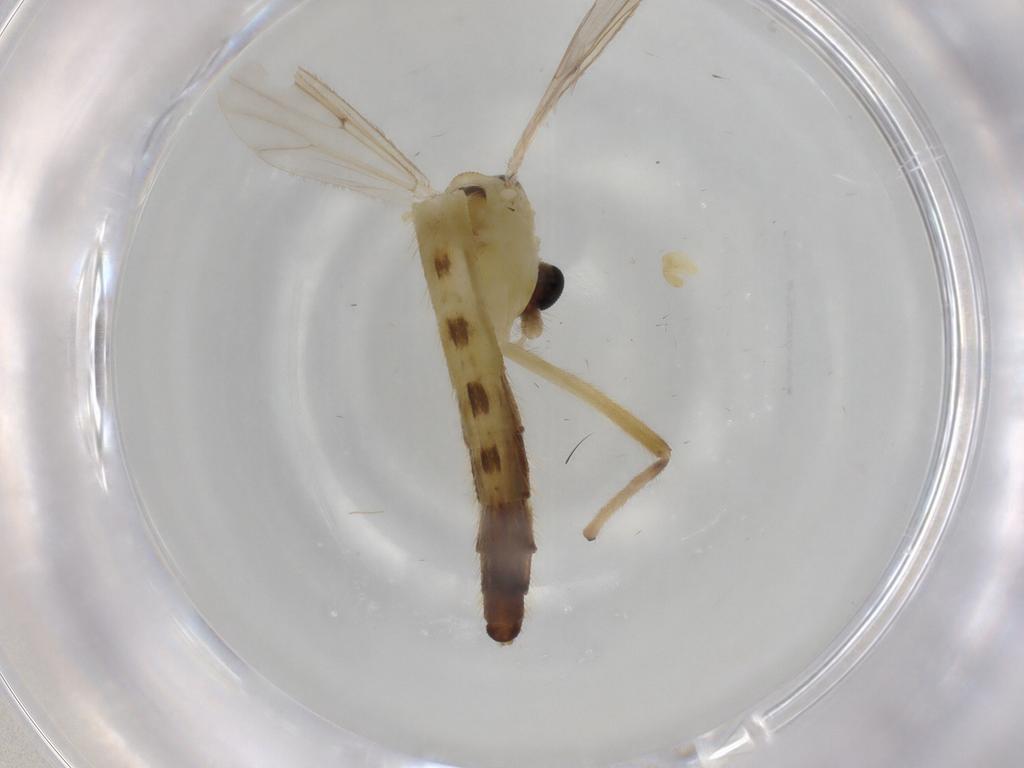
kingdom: Animalia
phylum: Arthropoda
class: Insecta
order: Diptera
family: Chironomidae
